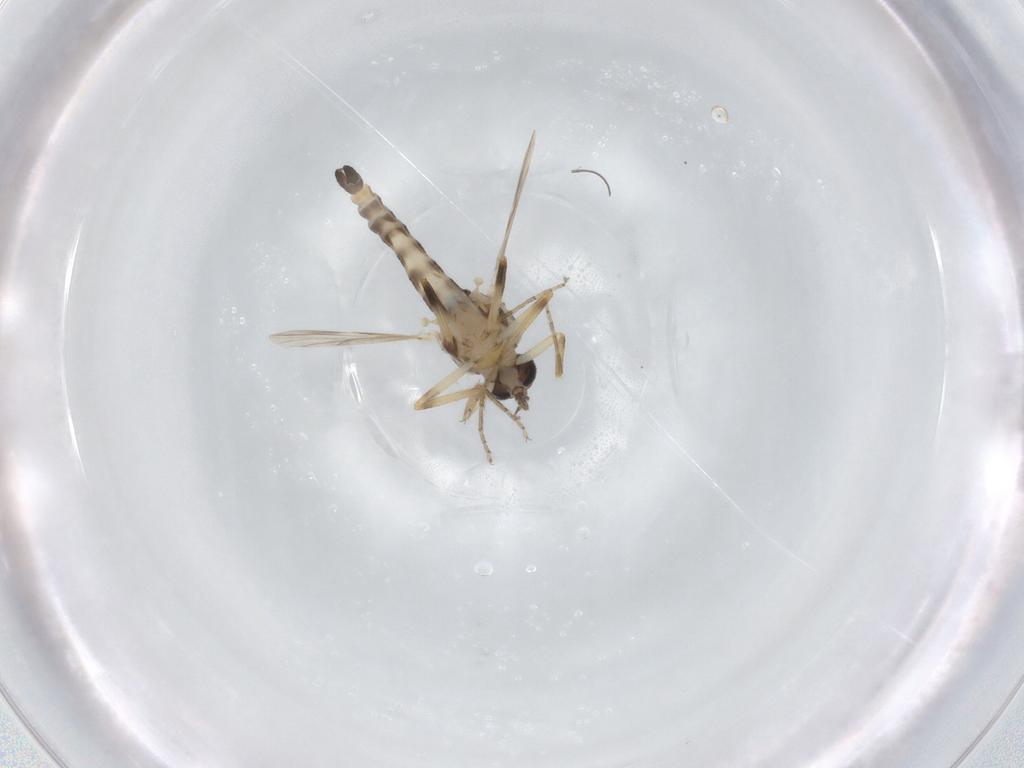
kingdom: Animalia
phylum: Arthropoda
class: Insecta
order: Diptera
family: Ceratopogonidae
